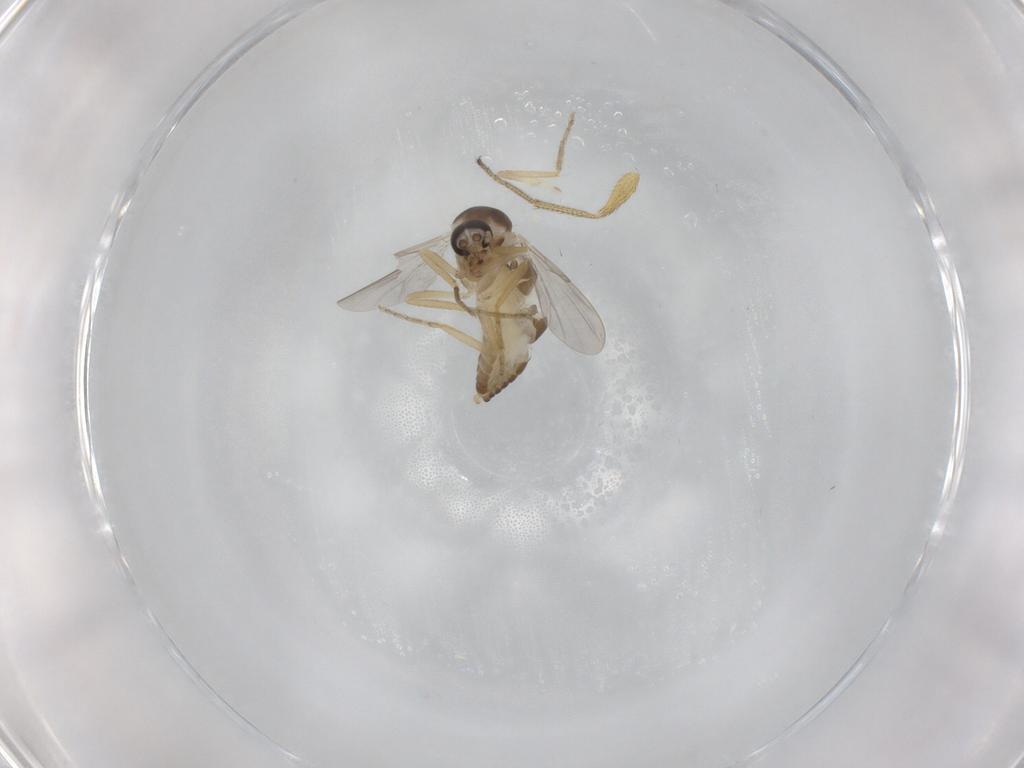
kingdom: Animalia
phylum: Arthropoda
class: Insecta
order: Diptera
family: Ceratopogonidae
